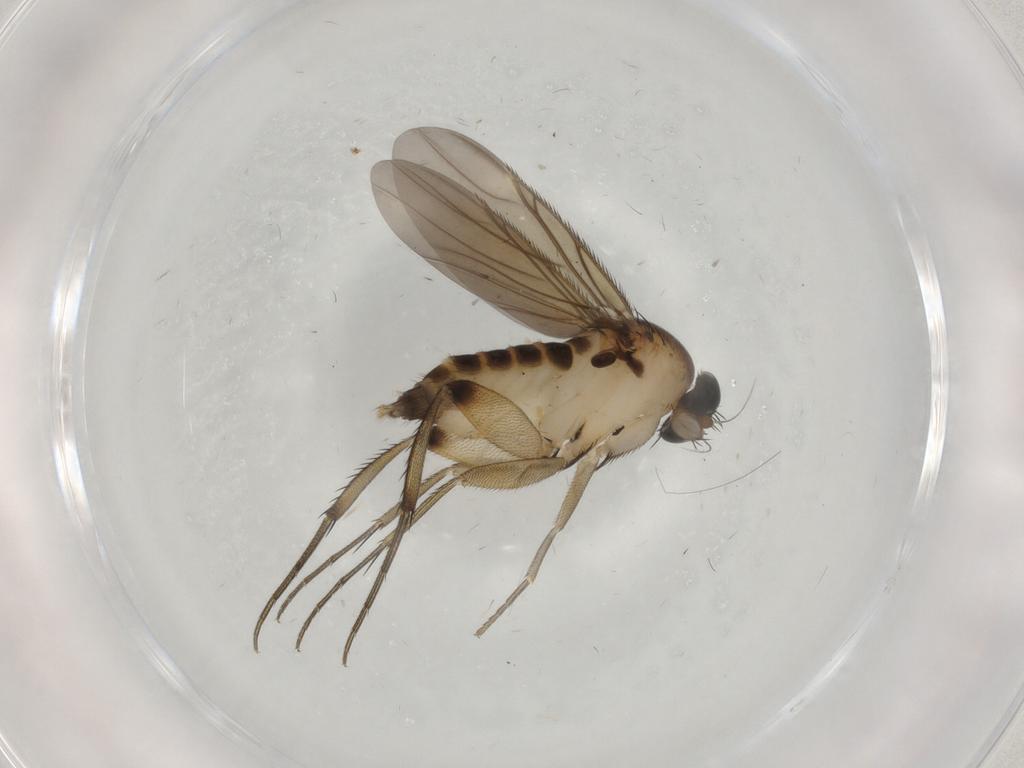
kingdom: Animalia
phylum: Arthropoda
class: Insecta
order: Diptera
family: Phoridae
